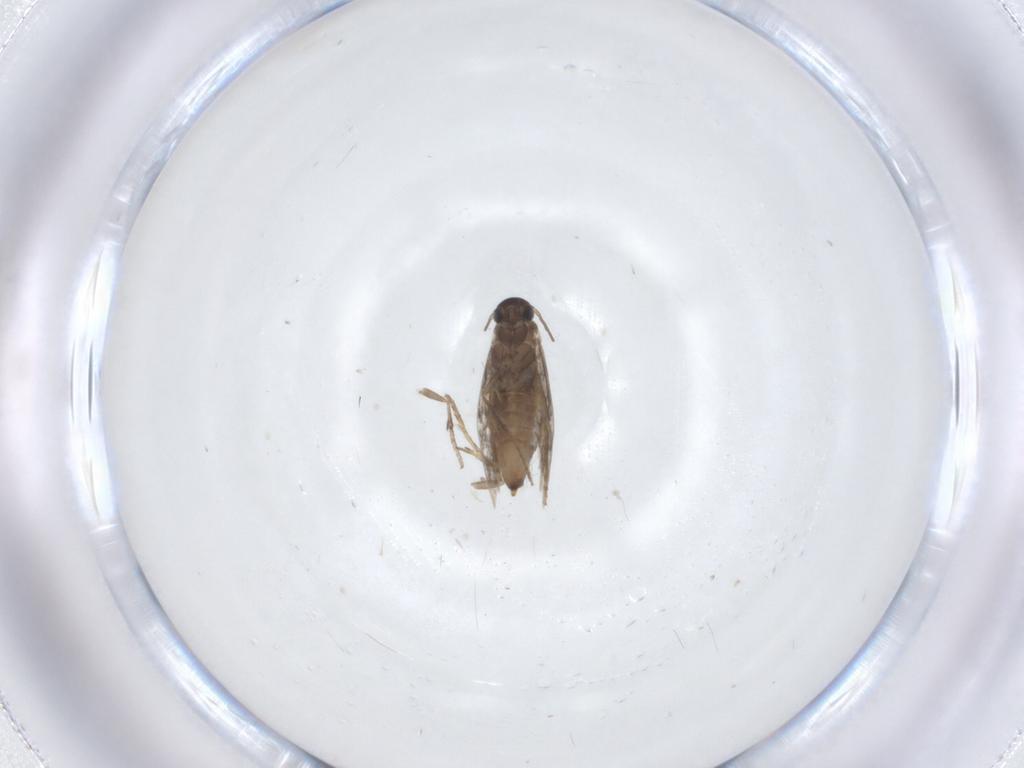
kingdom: Animalia
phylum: Arthropoda
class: Insecta
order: Lepidoptera
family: Heliozelidae
